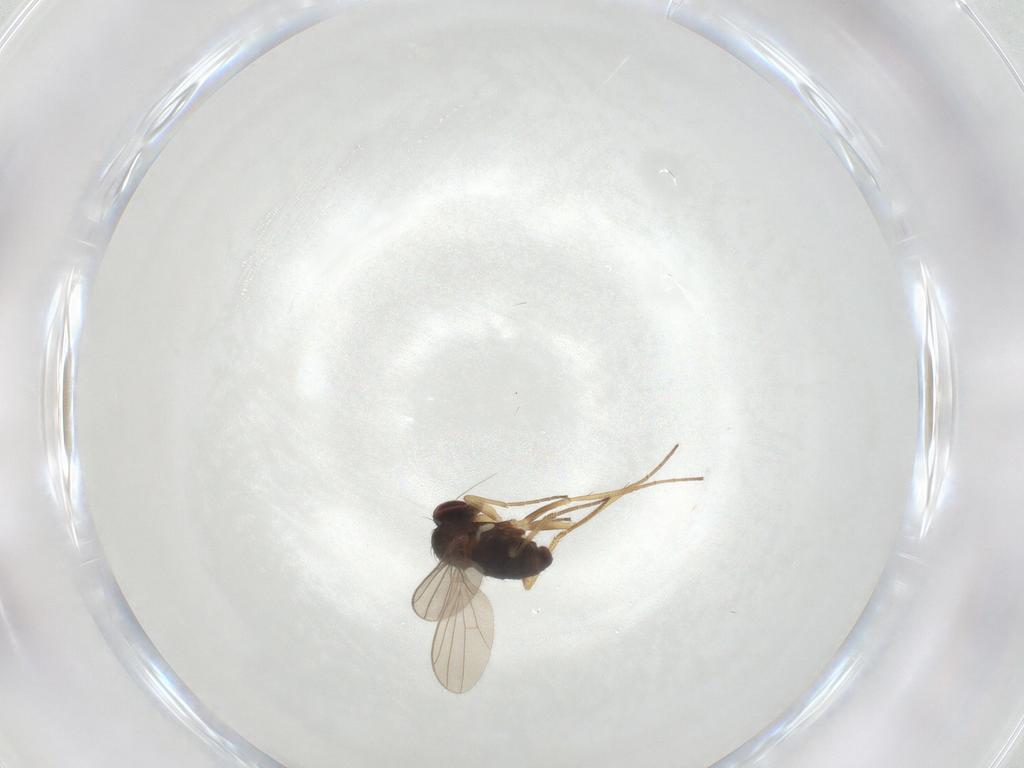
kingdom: Animalia
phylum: Arthropoda
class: Insecta
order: Diptera
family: Dolichopodidae
